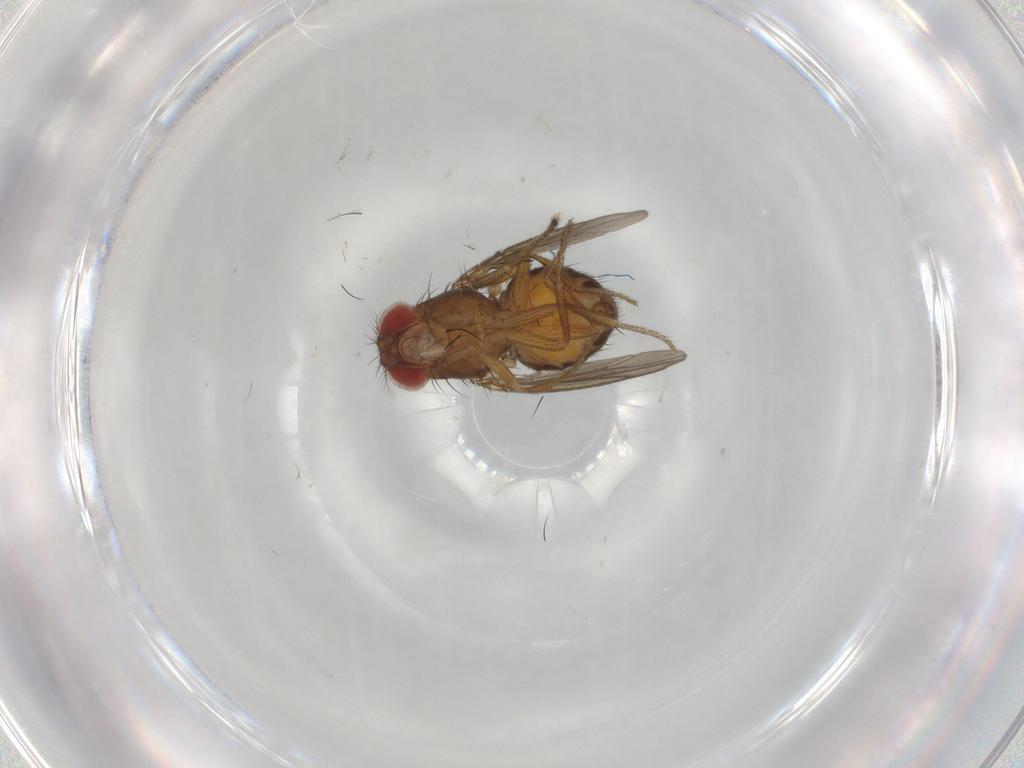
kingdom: Animalia
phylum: Arthropoda
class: Insecta
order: Diptera
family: Drosophilidae
